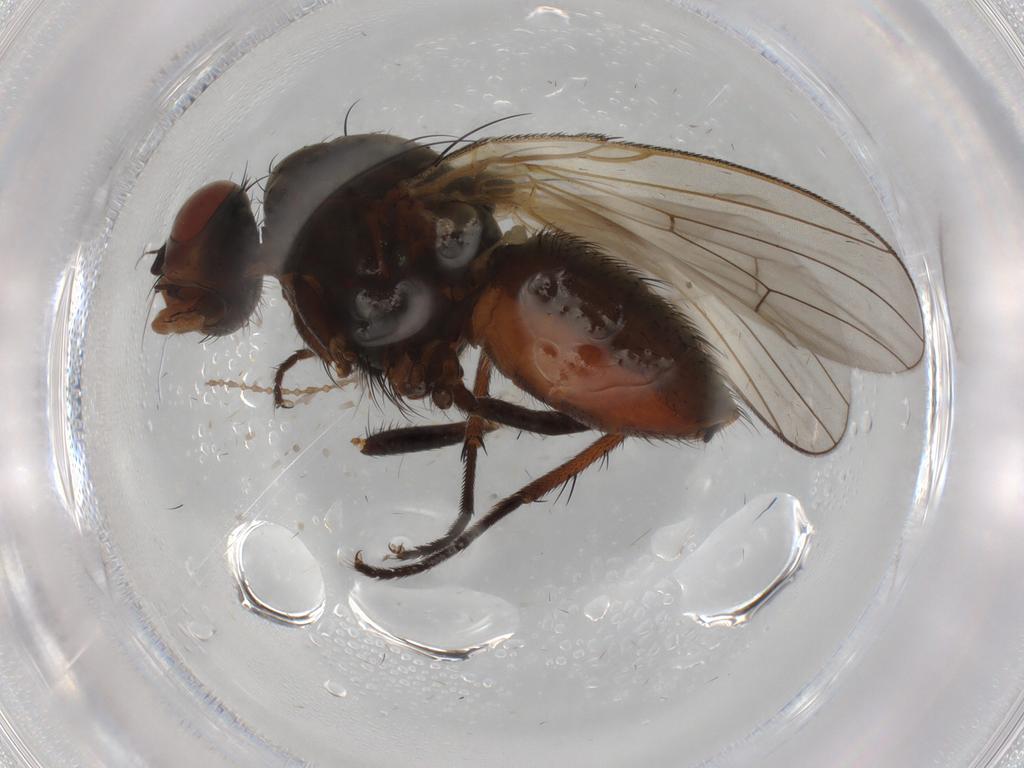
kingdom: Animalia
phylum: Arthropoda
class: Insecta
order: Diptera
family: Anthomyiidae
